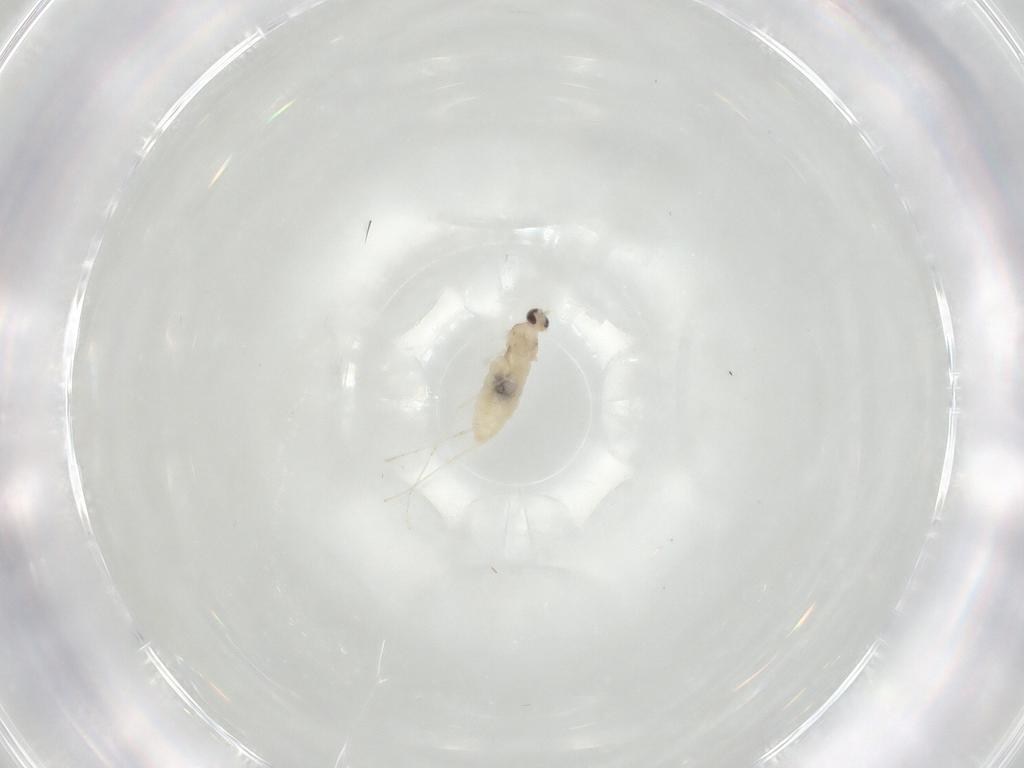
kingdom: Animalia
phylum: Arthropoda
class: Insecta
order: Diptera
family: Cecidomyiidae
